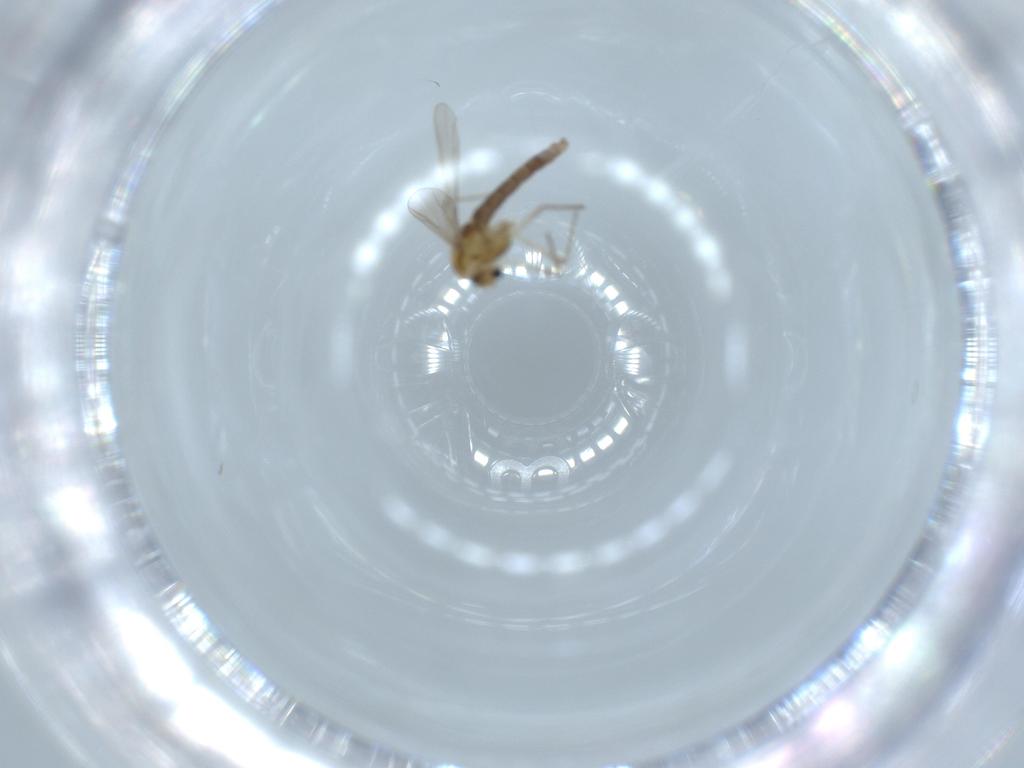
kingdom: Animalia
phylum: Arthropoda
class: Insecta
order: Diptera
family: Chironomidae
